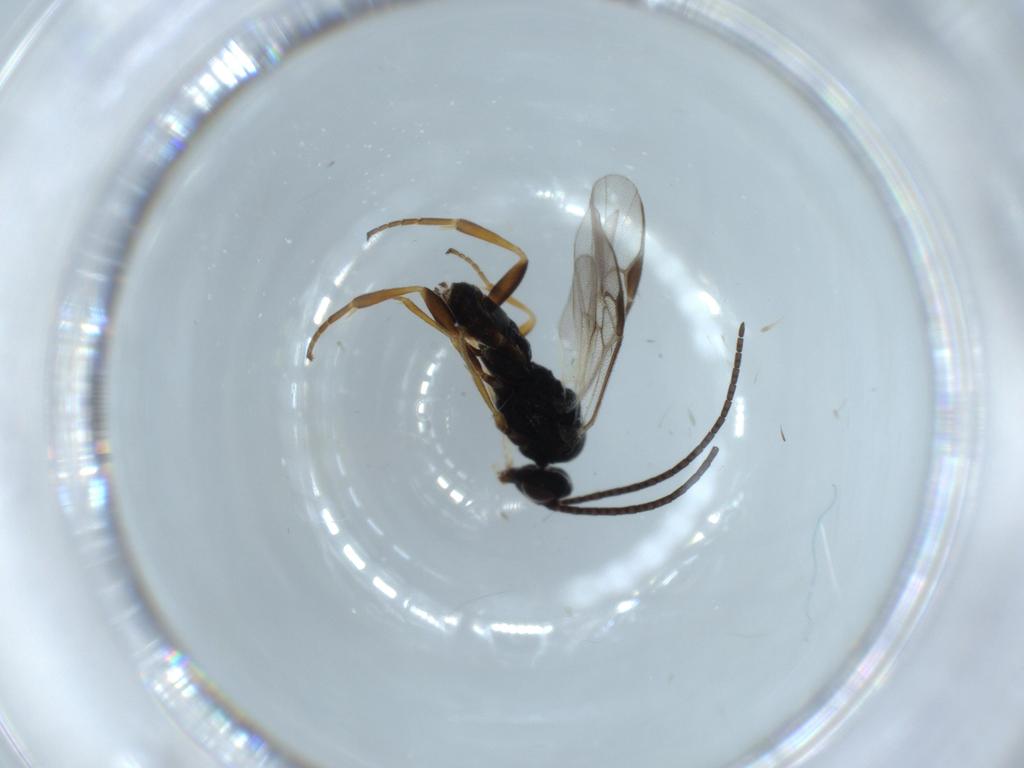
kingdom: Animalia
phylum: Arthropoda
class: Insecta
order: Hymenoptera
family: Braconidae
